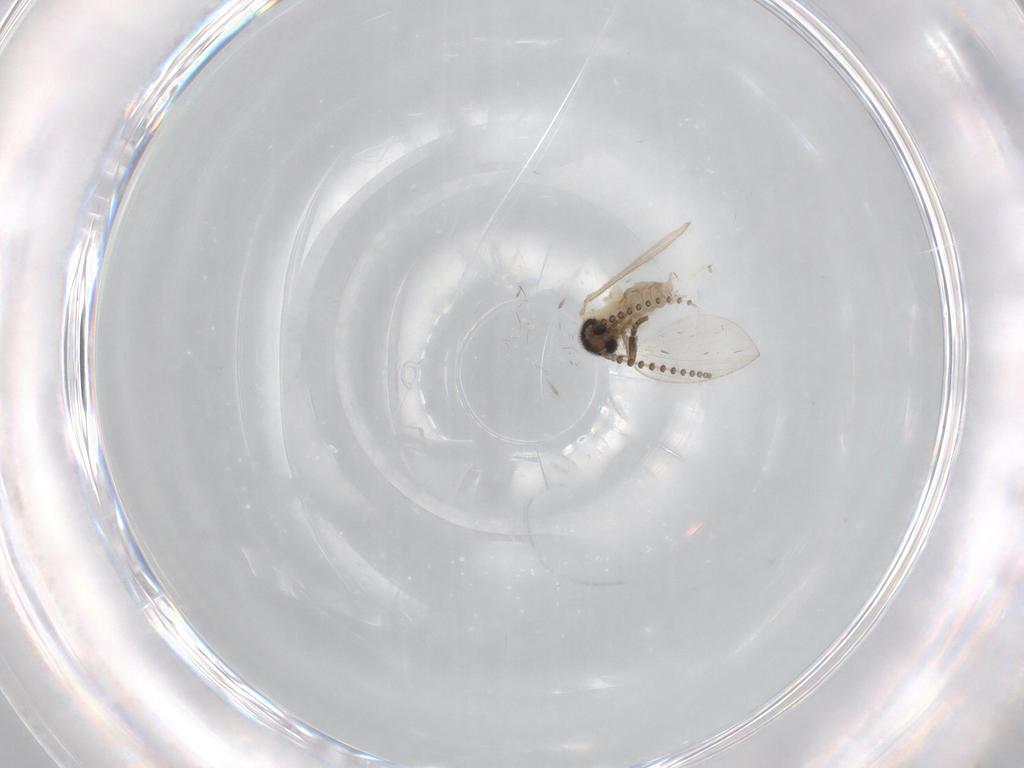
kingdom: Animalia
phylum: Arthropoda
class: Insecta
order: Diptera
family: Psychodidae
